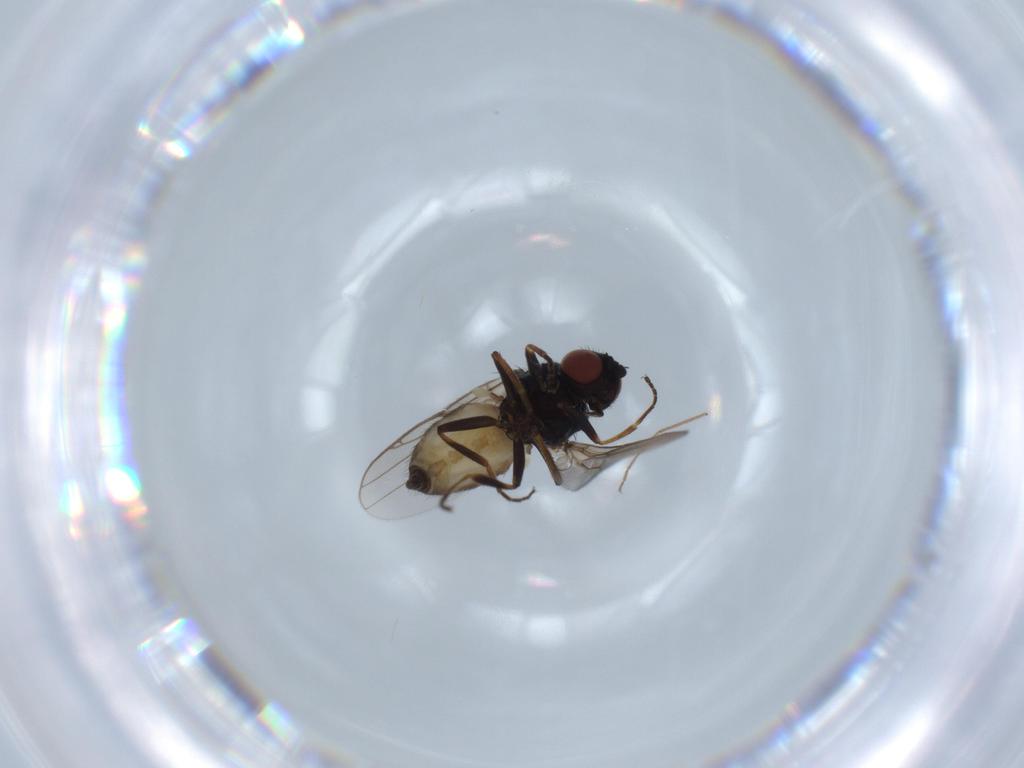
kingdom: Animalia
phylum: Arthropoda
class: Insecta
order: Diptera
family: Chloropidae
